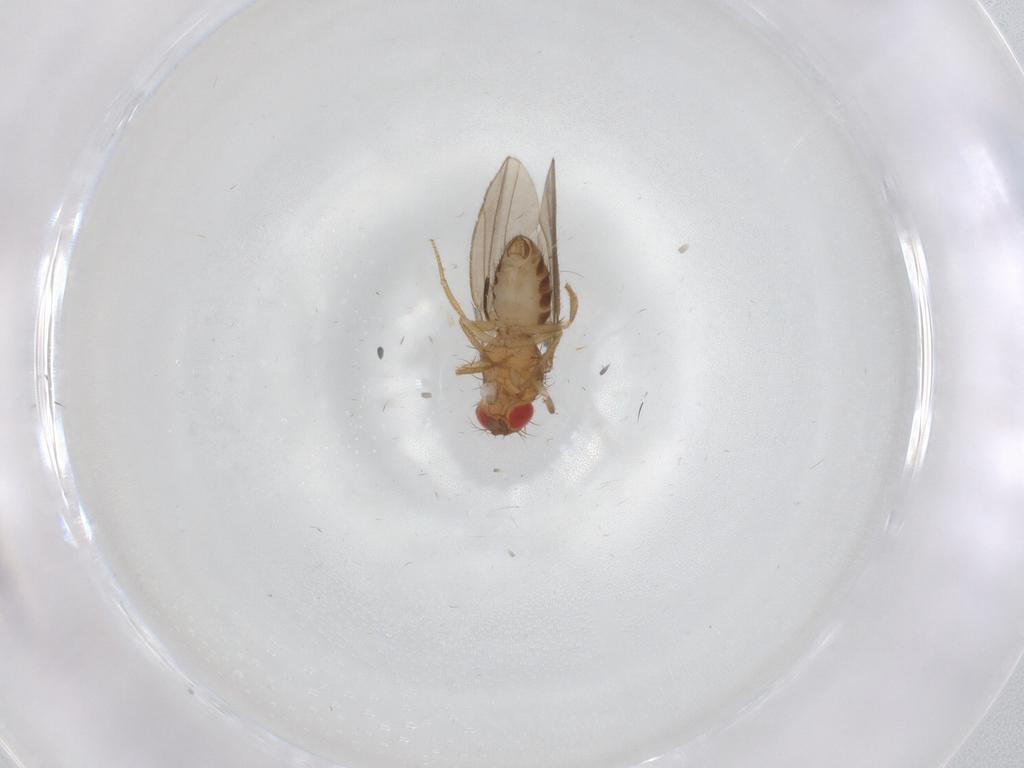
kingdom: Animalia
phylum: Arthropoda
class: Insecta
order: Diptera
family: Drosophilidae
